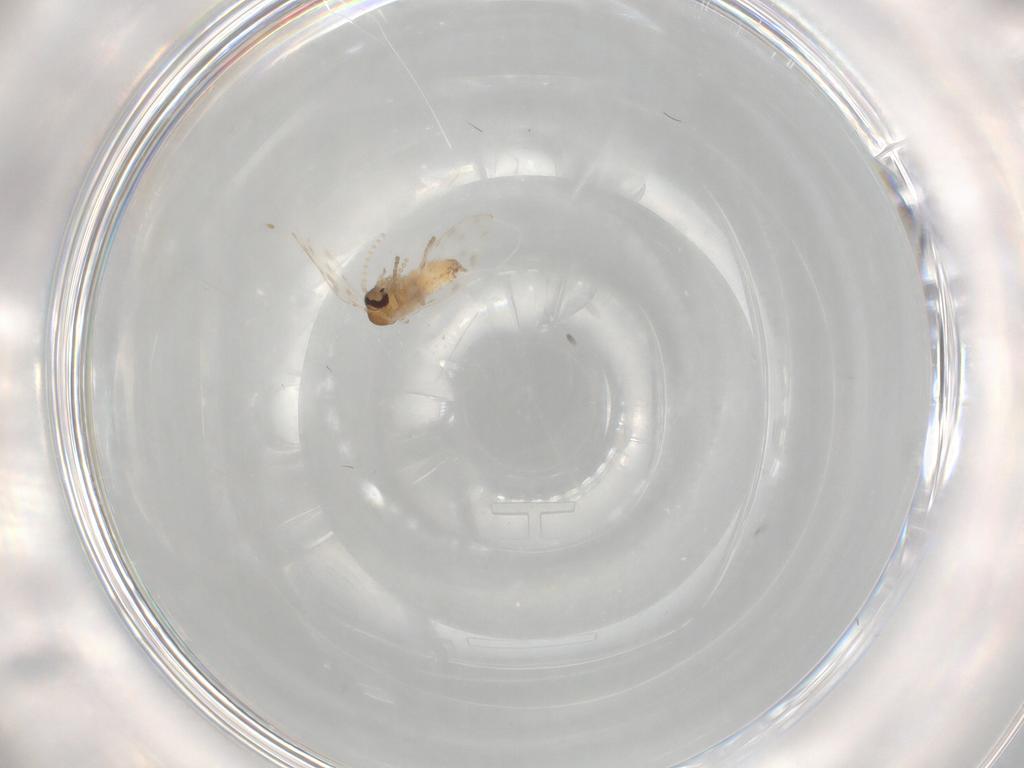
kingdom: Animalia
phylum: Arthropoda
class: Insecta
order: Diptera
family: Psychodidae
